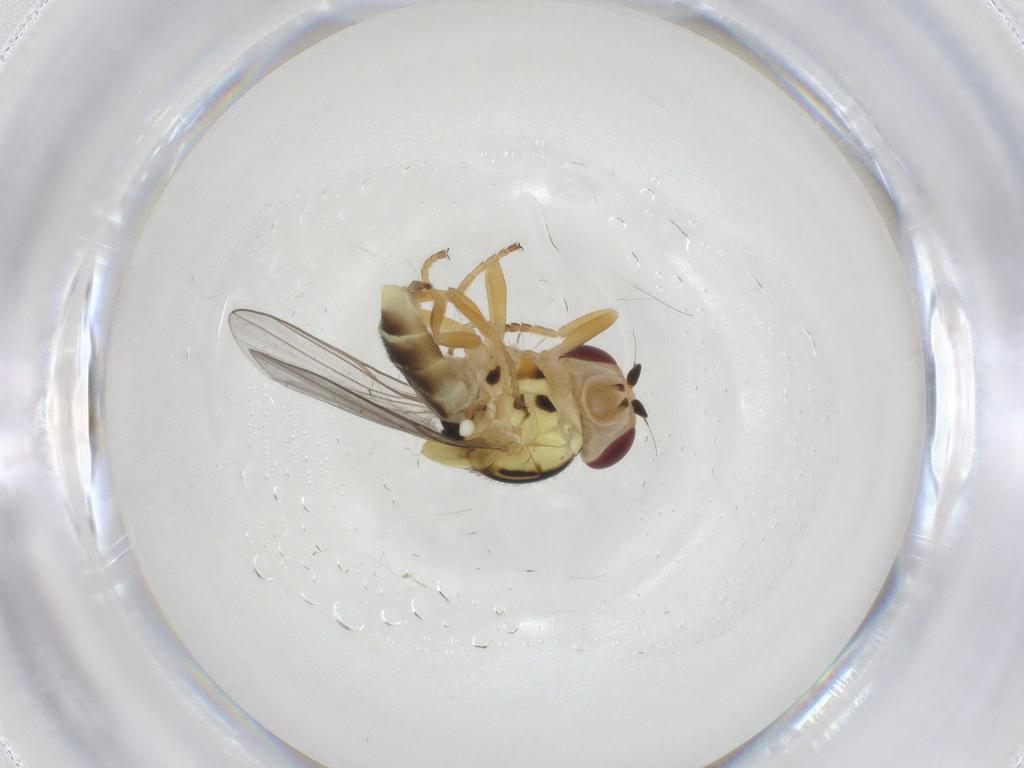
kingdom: Animalia
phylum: Arthropoda
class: Insecta
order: Diptera
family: Chloropidae
